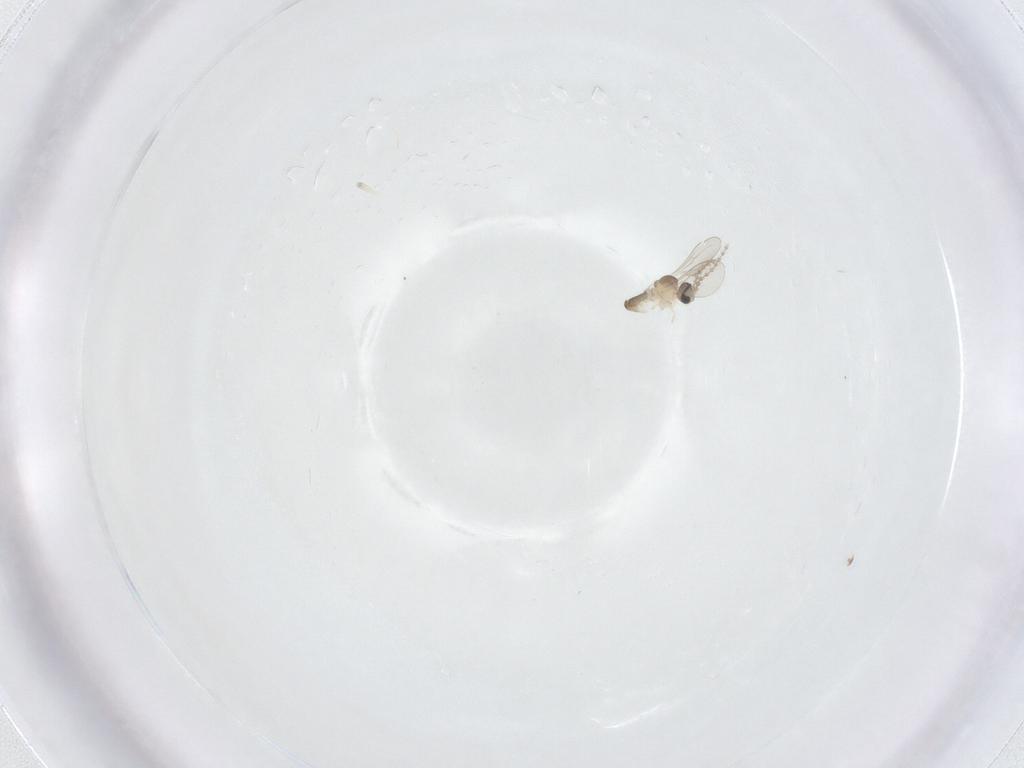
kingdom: Animalia
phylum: Arthropoda
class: Insecta
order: Diptera
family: Cecidomyiidae
